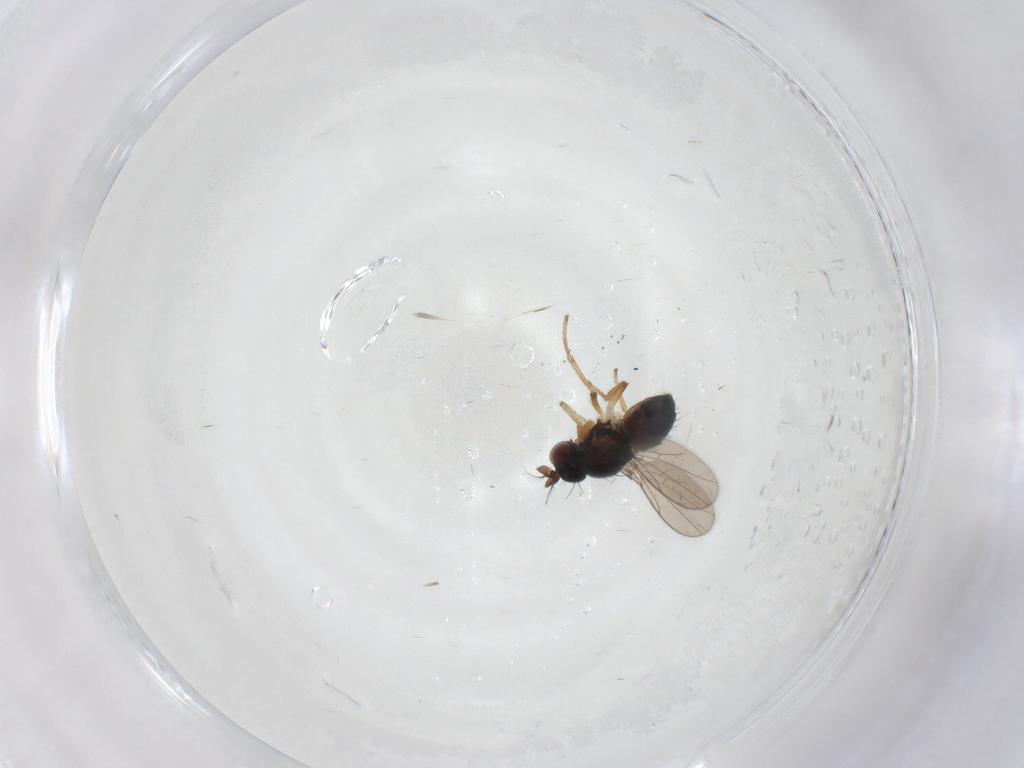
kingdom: Animalia
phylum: Arthropoda
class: Insecta
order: Diptera
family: Ephydridae
